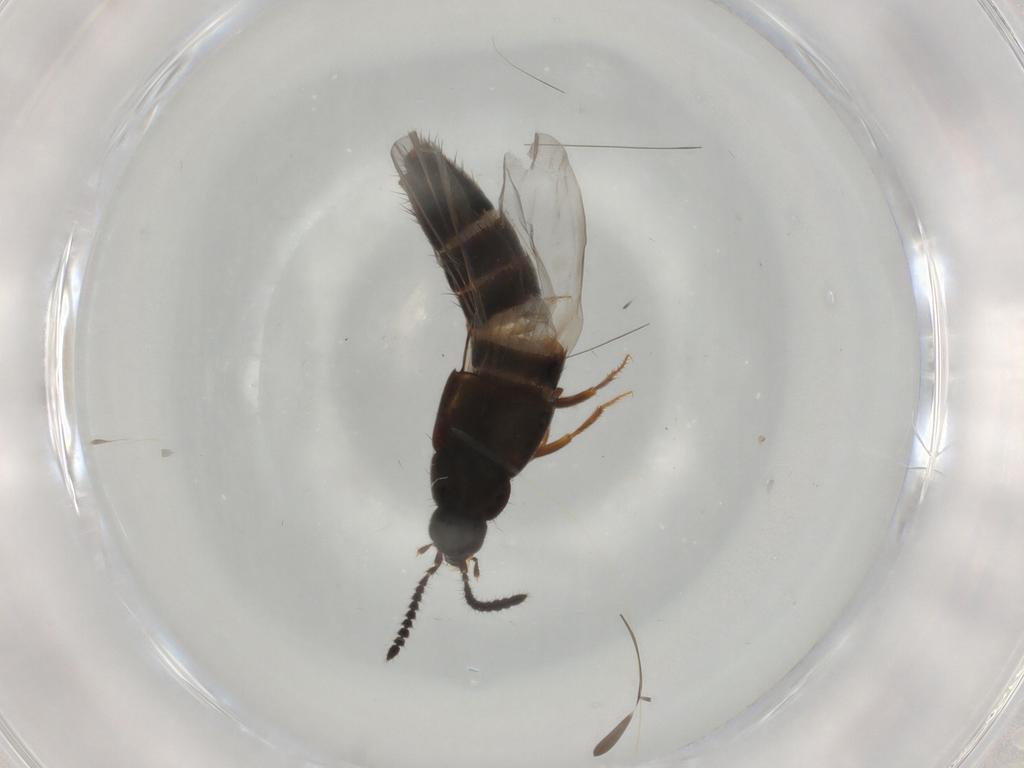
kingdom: Animalia
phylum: Arthropoda
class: Insecta
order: Coleoptera
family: Staphylinidae
